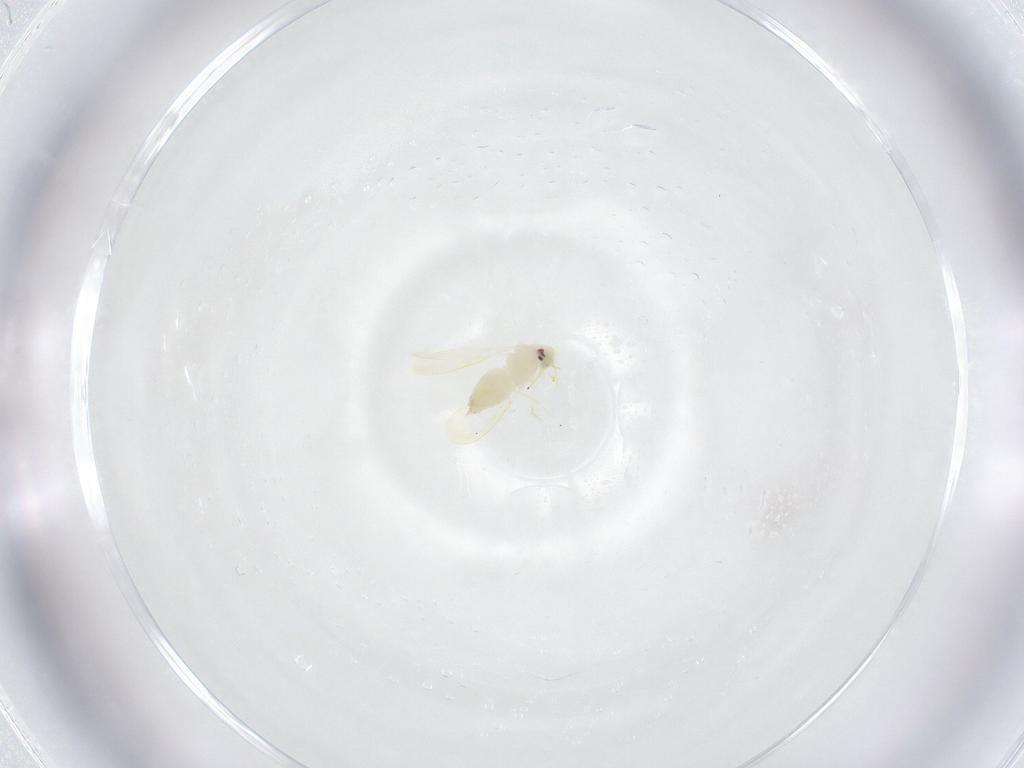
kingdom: Animalia
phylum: Arthropoda
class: Insecta
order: Hemiptera
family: Aleyrodidae
